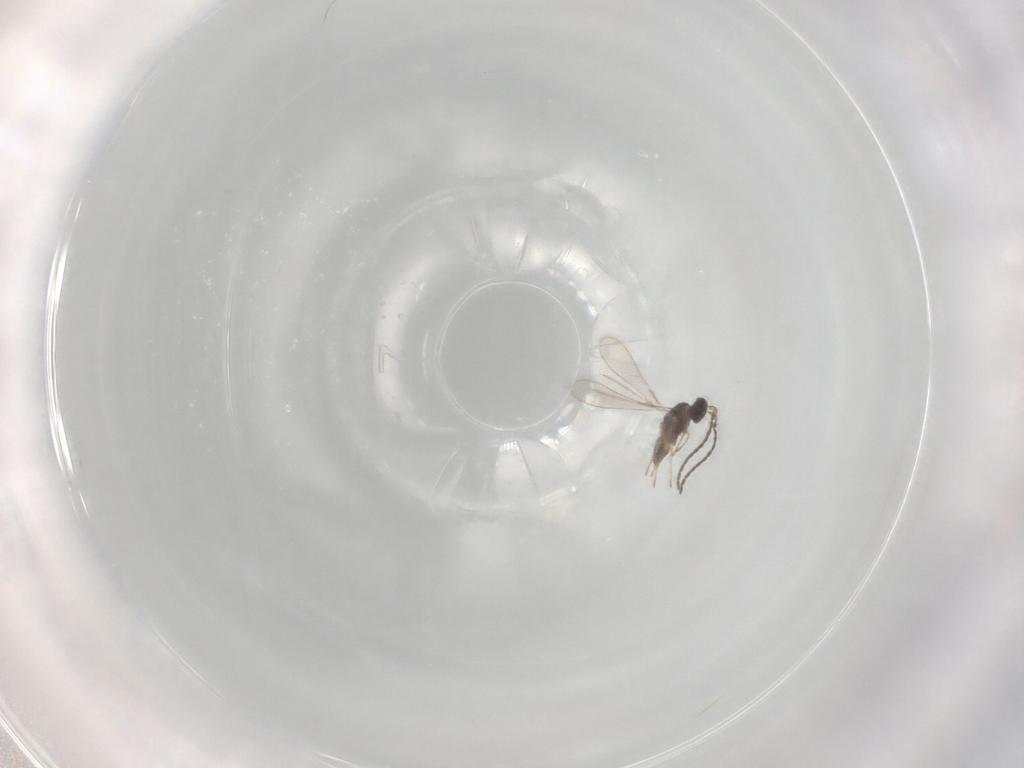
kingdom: Animalia
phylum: Arthropoda
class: Insecta
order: Hymenoptera
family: Mymaridae
